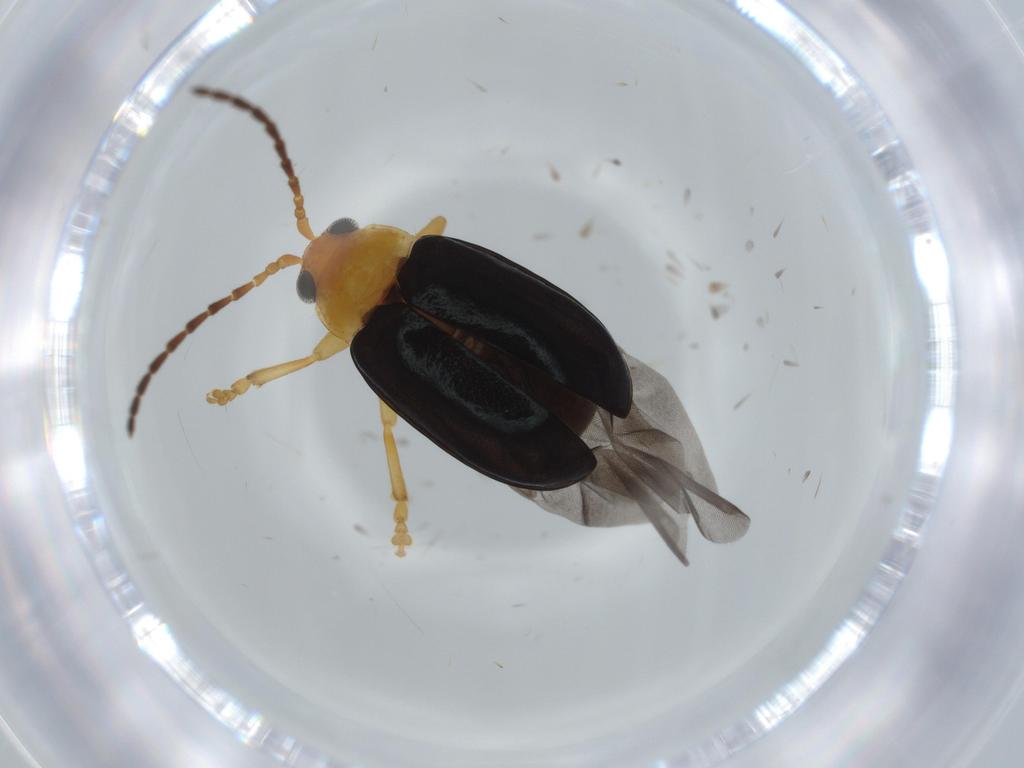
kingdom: Animalia
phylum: Arthropoda
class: Insecta
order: Coleoptera
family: Chrysomelidae
